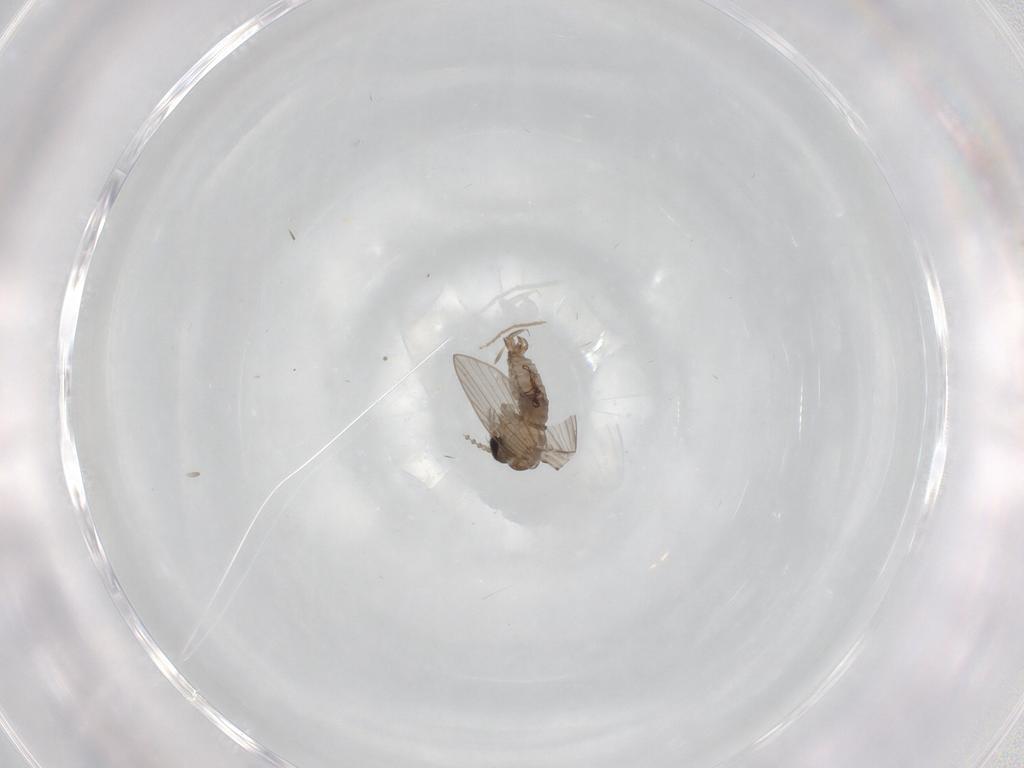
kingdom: Animalia
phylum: Arthropoda
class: Insecta
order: Diptera
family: Psychodidae
